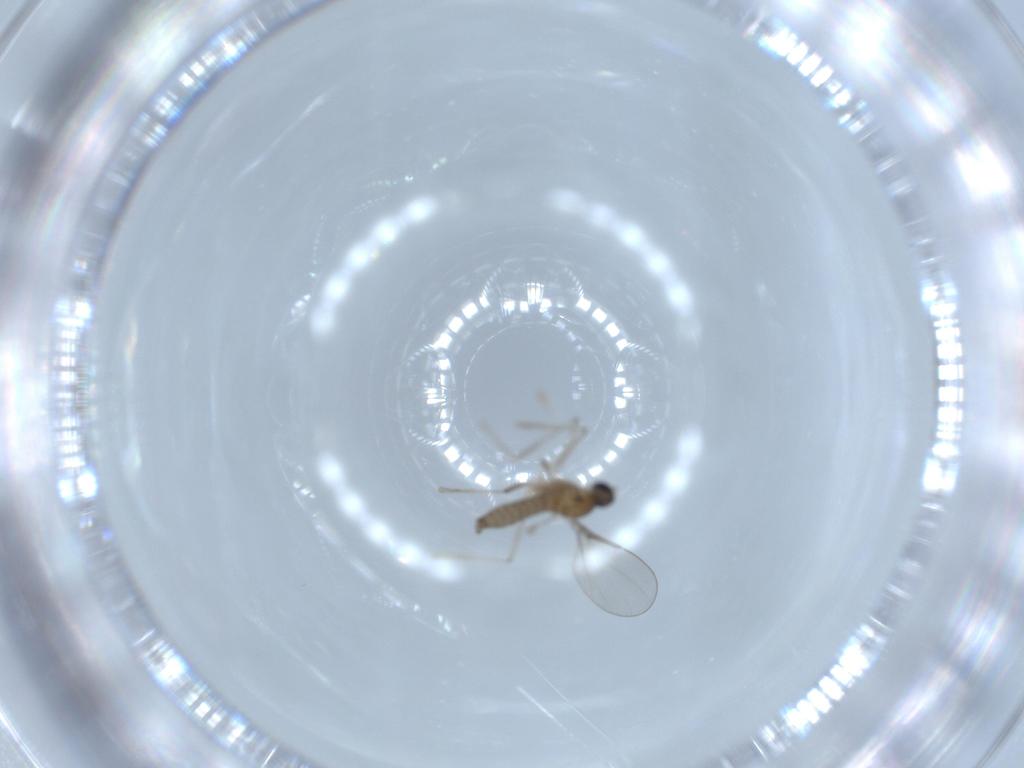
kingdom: Animalia
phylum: Arthropoda
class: Insecta
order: Diptera
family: Cecidomyiidae
